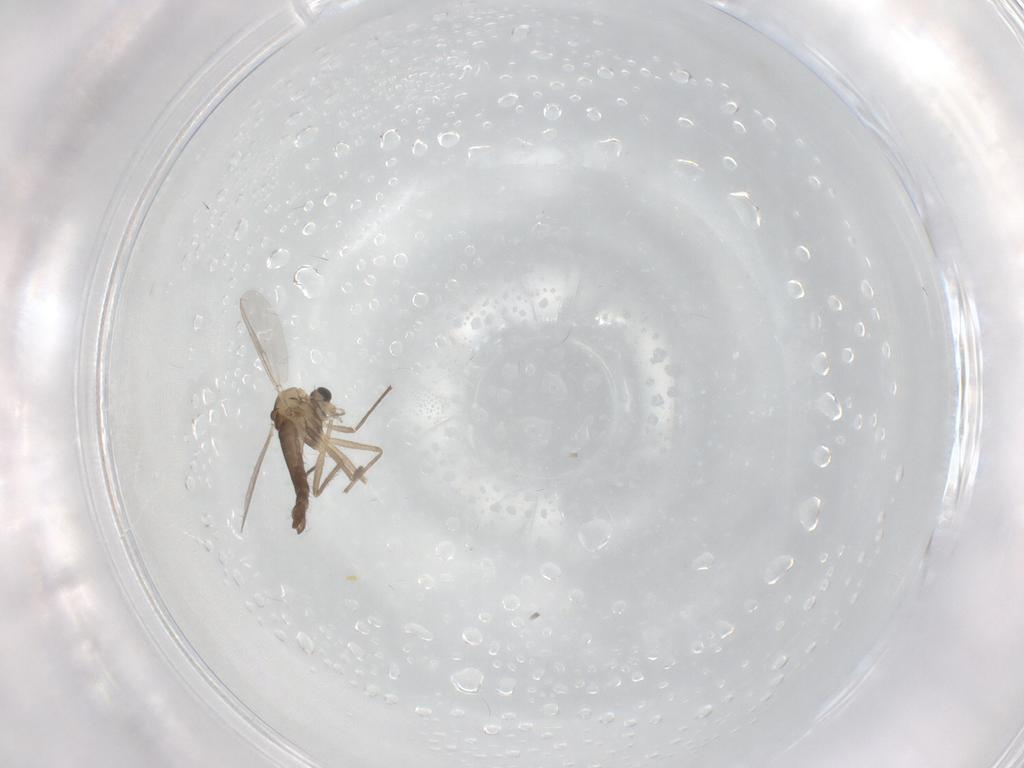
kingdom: Animalia
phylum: Arthropoda
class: Insecta
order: Diptera
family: Chironomidae
